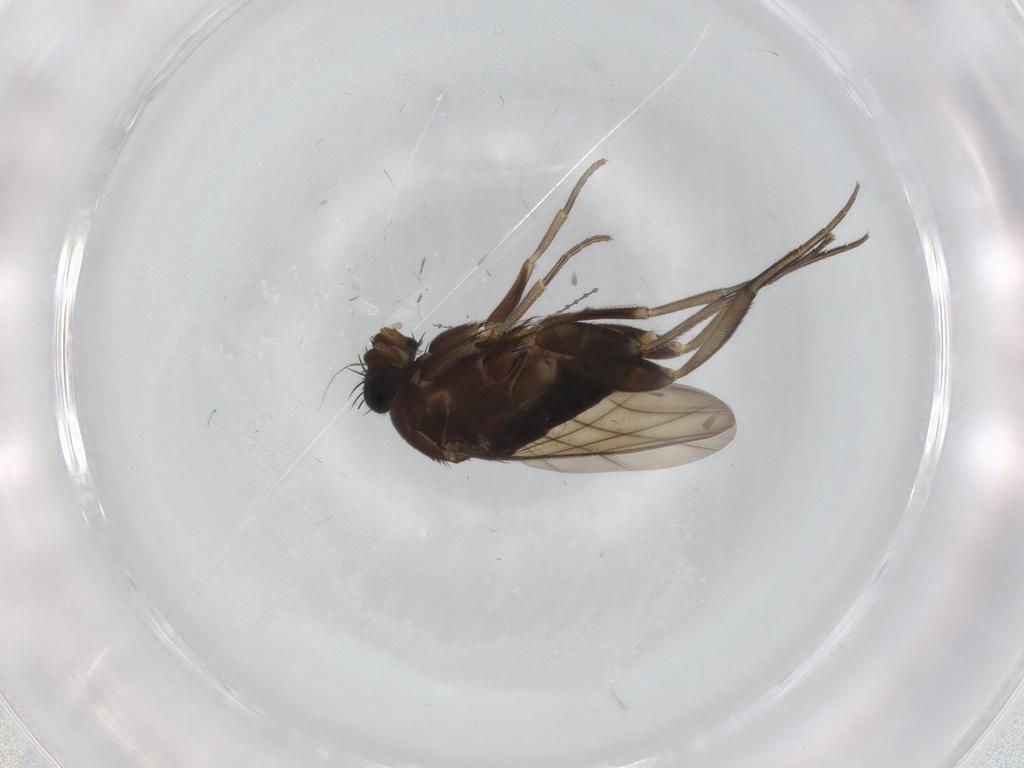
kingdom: Animalia
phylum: Arthropoda
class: Insecta
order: Diptera
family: Phoridae
